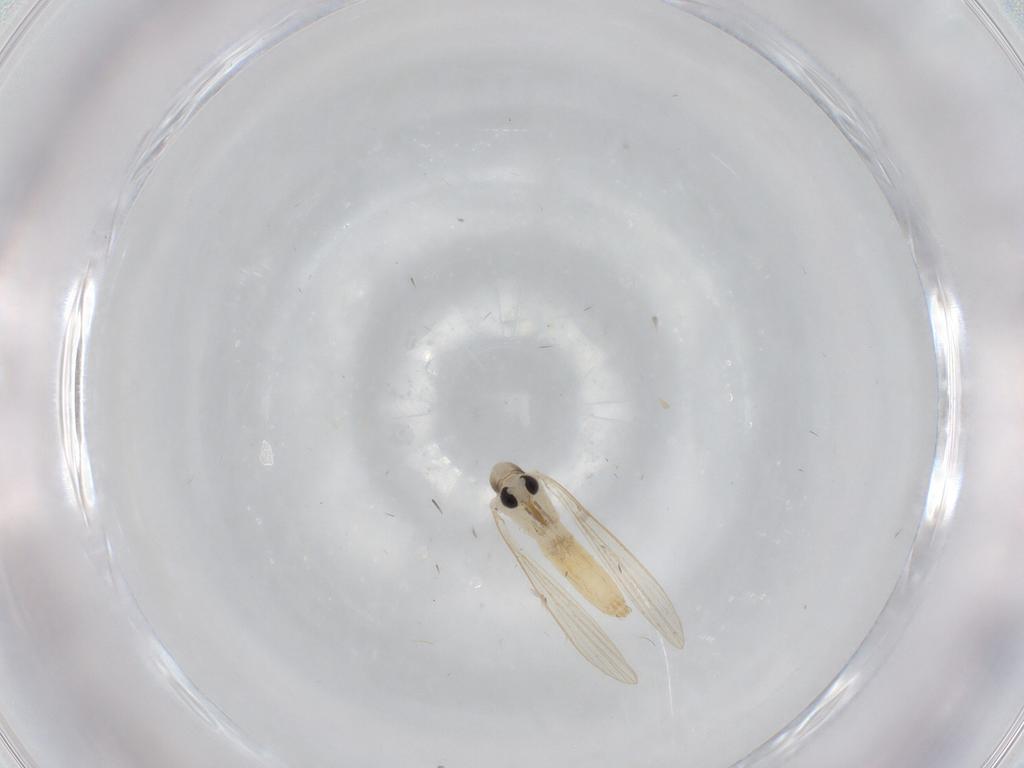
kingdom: Animalia
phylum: Arthropoda
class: Insecta
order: Diptera
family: Psychodidae
